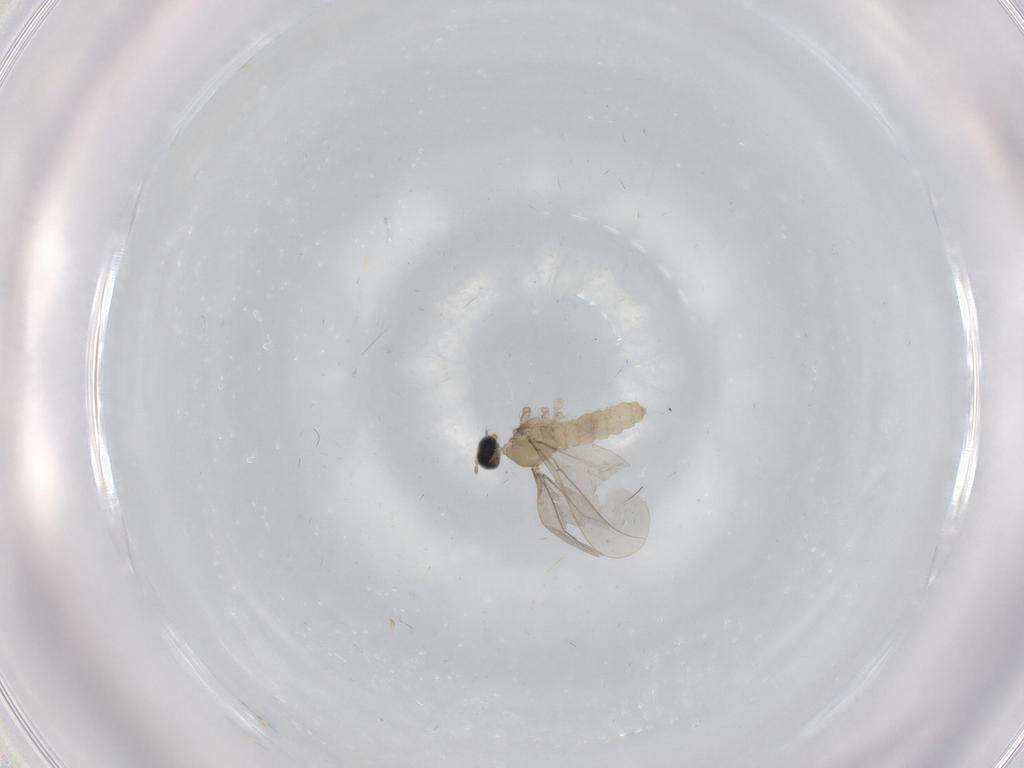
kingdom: Animalia
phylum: Arthropoda
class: Insecta
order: Diptera
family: Cecidomyiidae
